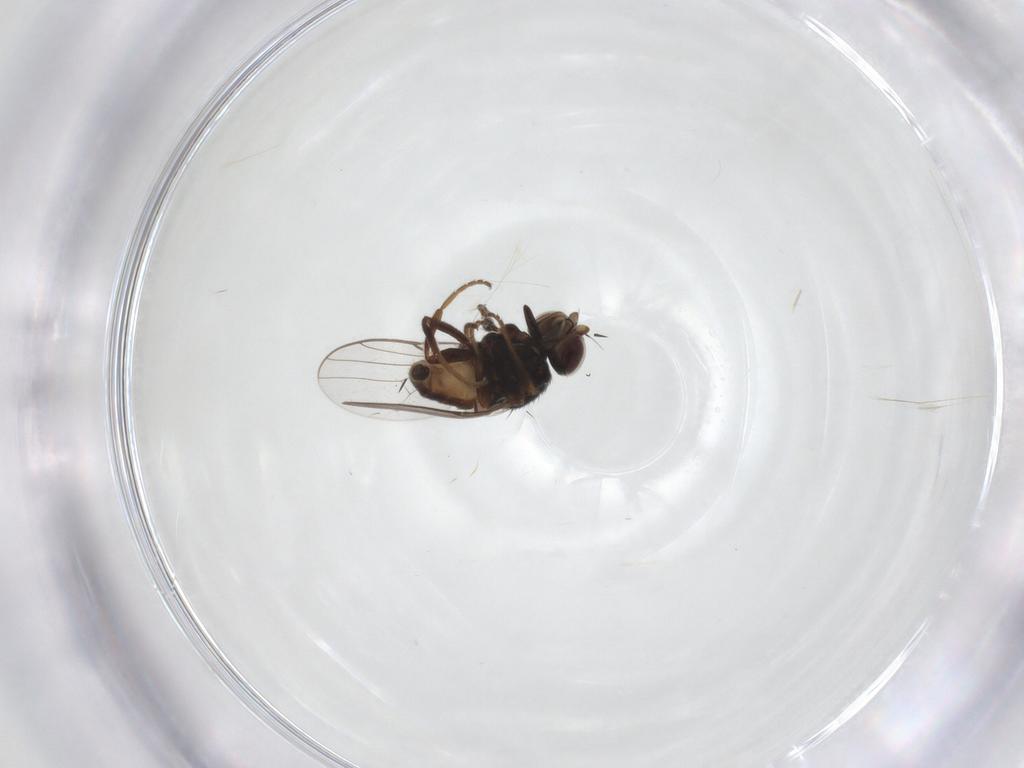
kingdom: Animalia
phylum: Arthropoda
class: Insecta
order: Diptera
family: Chloropidae
